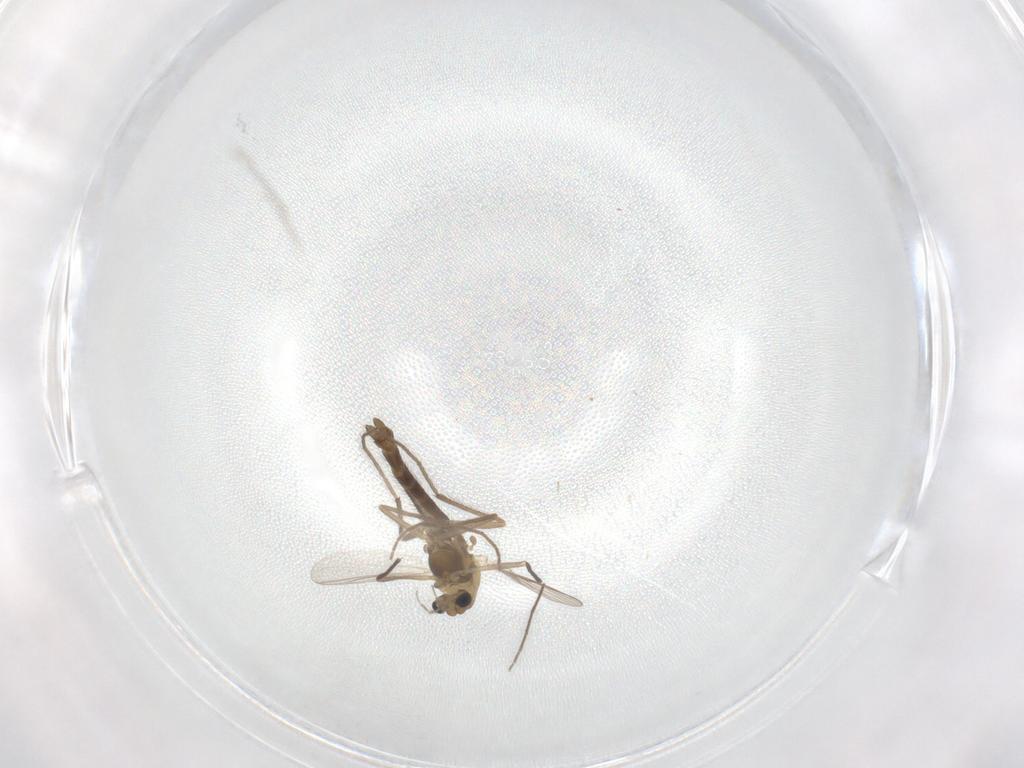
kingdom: Animalia
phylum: Arthropoda
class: Insecta
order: Diptera
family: Chironomidae
